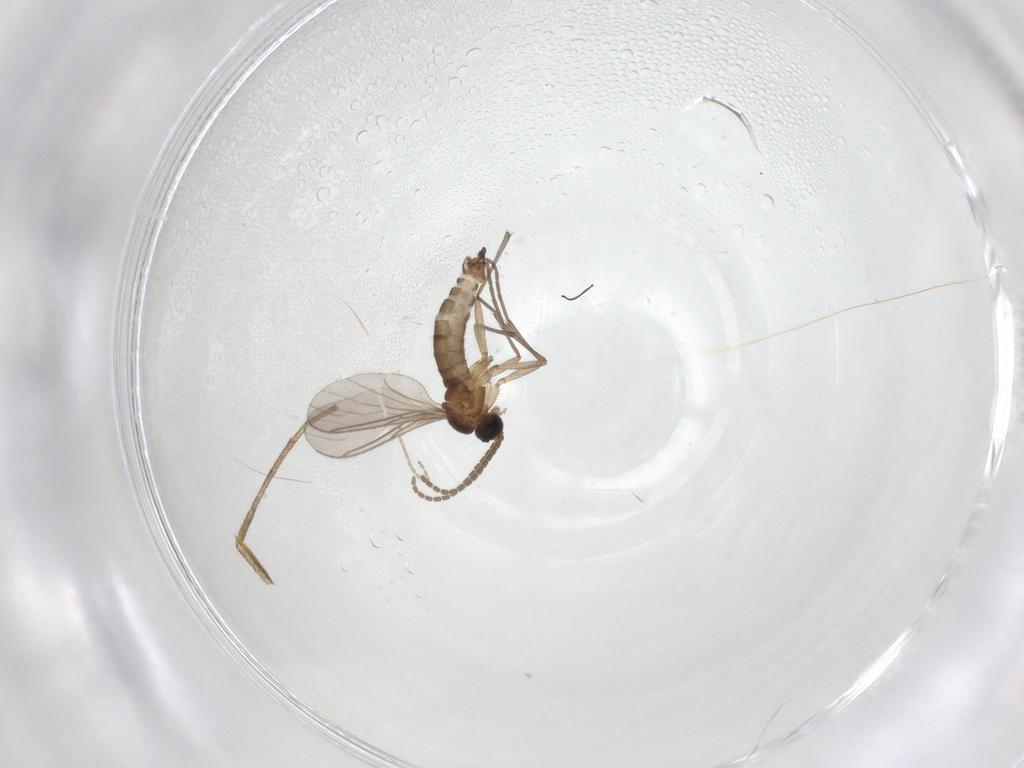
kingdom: Animalia
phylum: Arthropoda
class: Insecta
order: Diptera
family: Sciaridae
